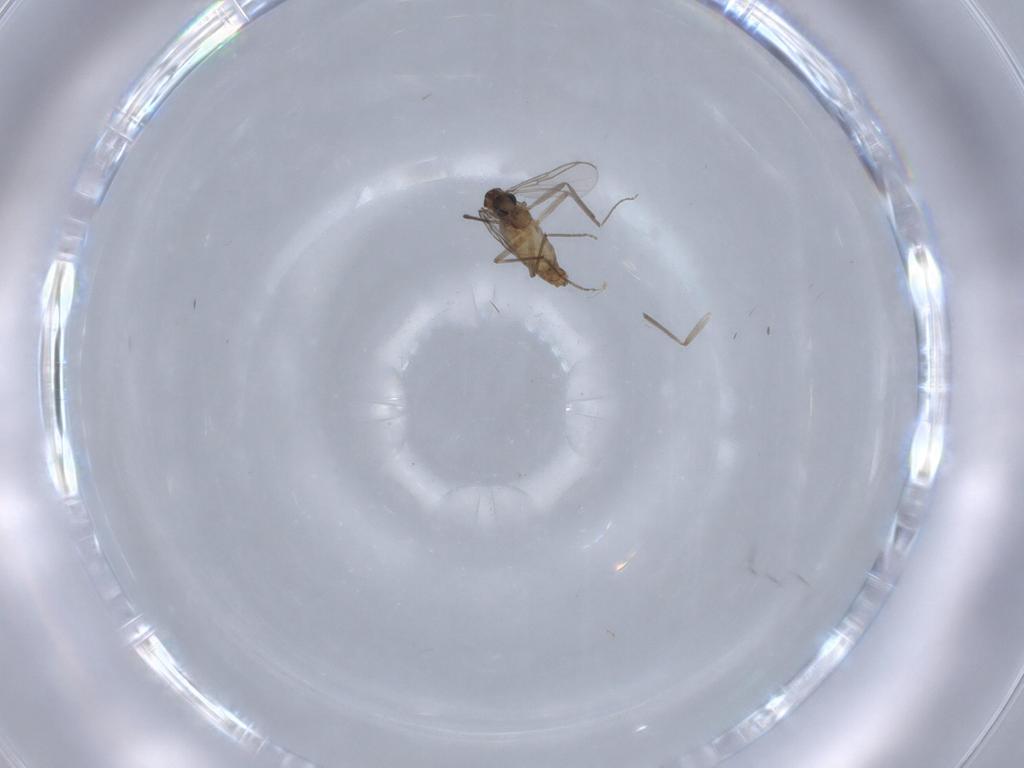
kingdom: Animalia
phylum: Arthropoda
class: Insecta
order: Diptera
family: Chironomidae
